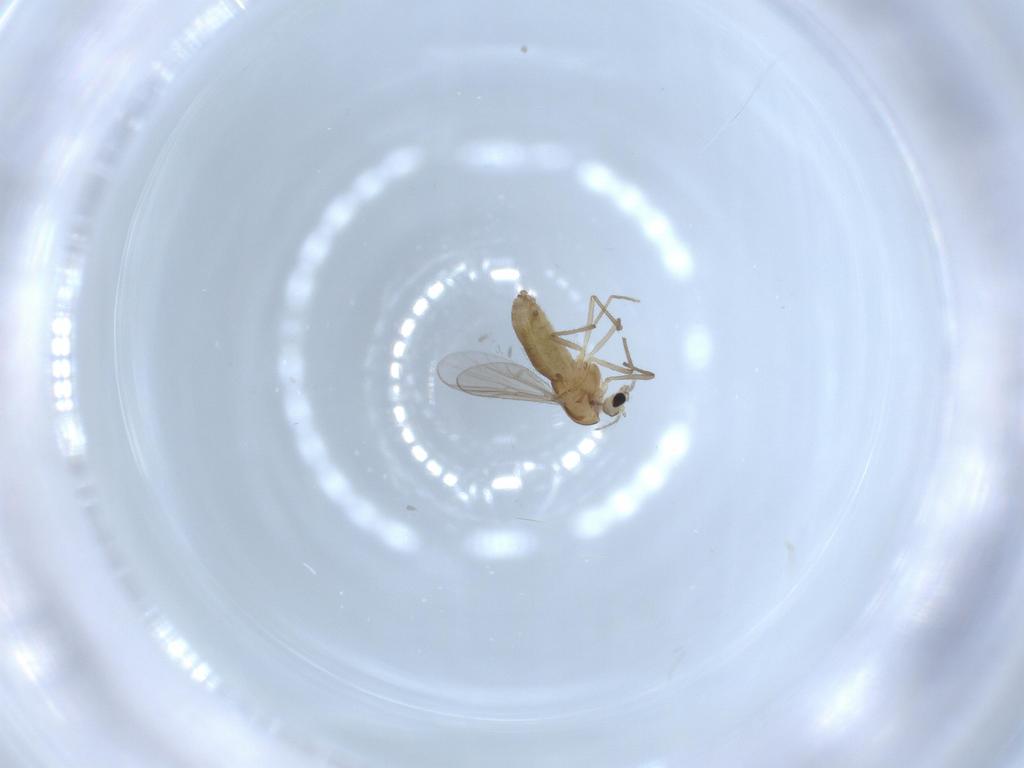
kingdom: Animalia
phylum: Arthropoda
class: Insecta
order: Diptera
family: Chironomidae
